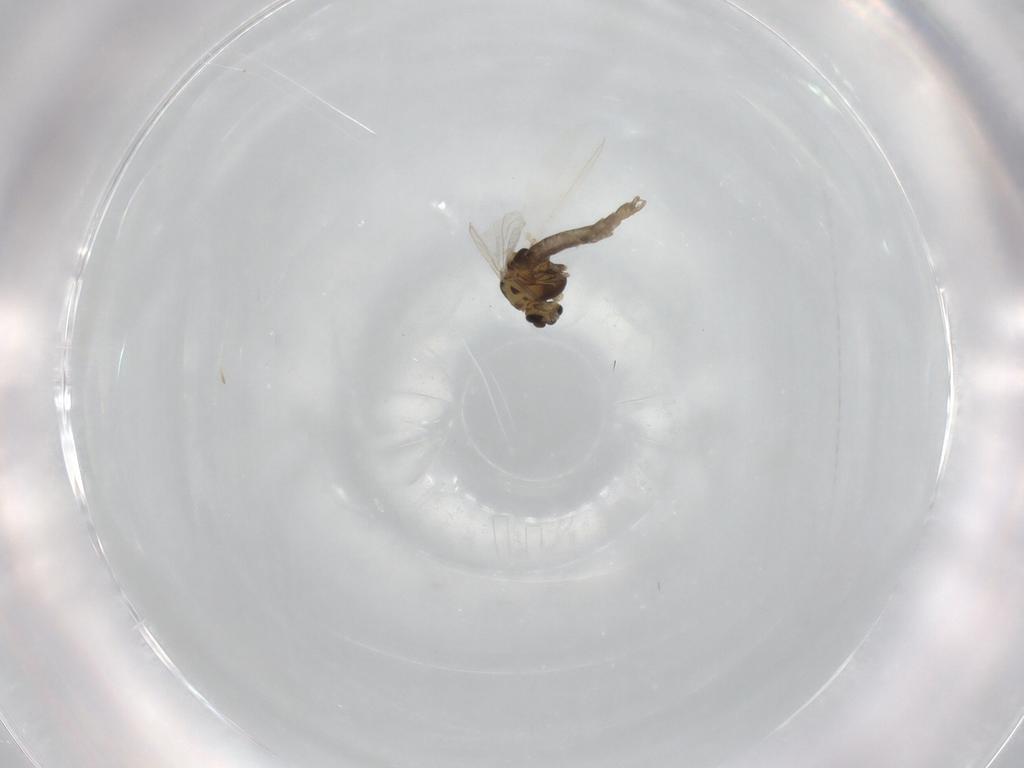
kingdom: Animalia
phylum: Arthropoda
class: Insecta
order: Diptera
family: Chironomidae
